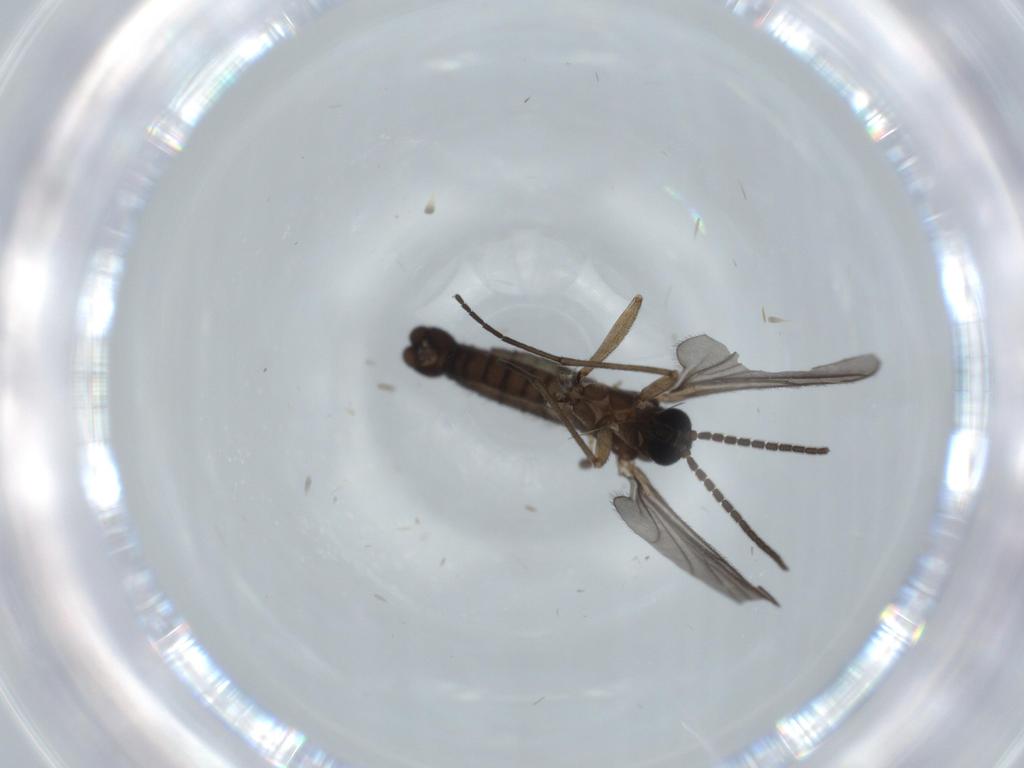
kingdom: Animalia
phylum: Arthropoda
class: Insecta
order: Diptera
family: Sciaridae
